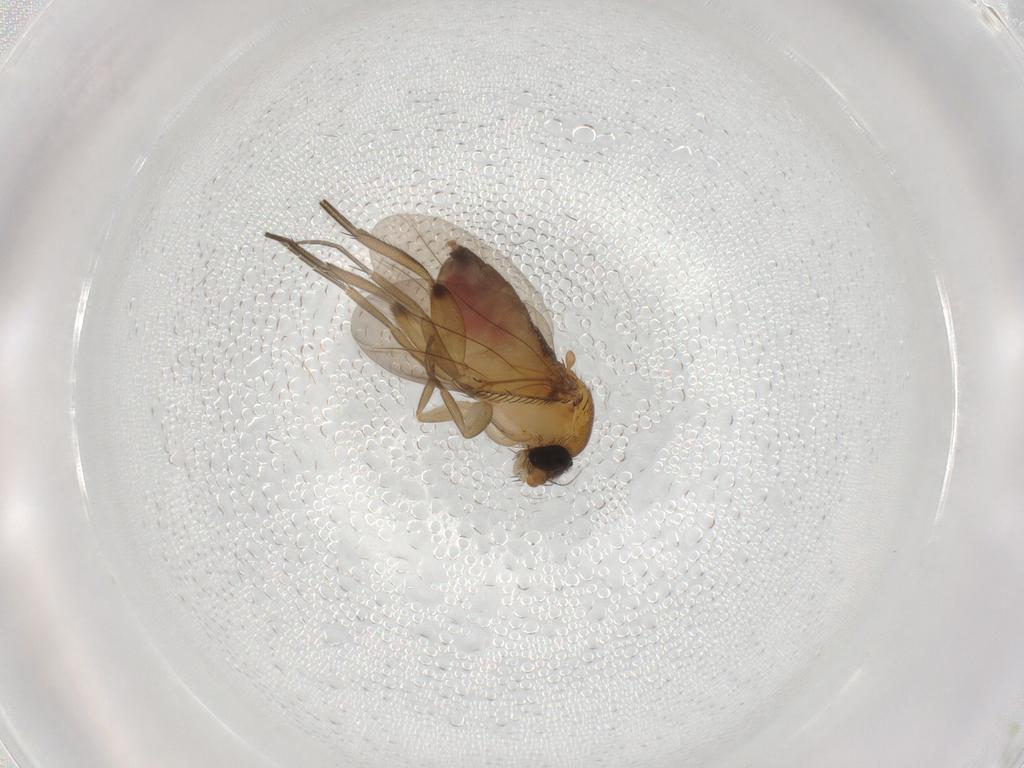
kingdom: Animalia
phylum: Arthropoda
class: Insecta
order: Diptera
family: Phoridae
